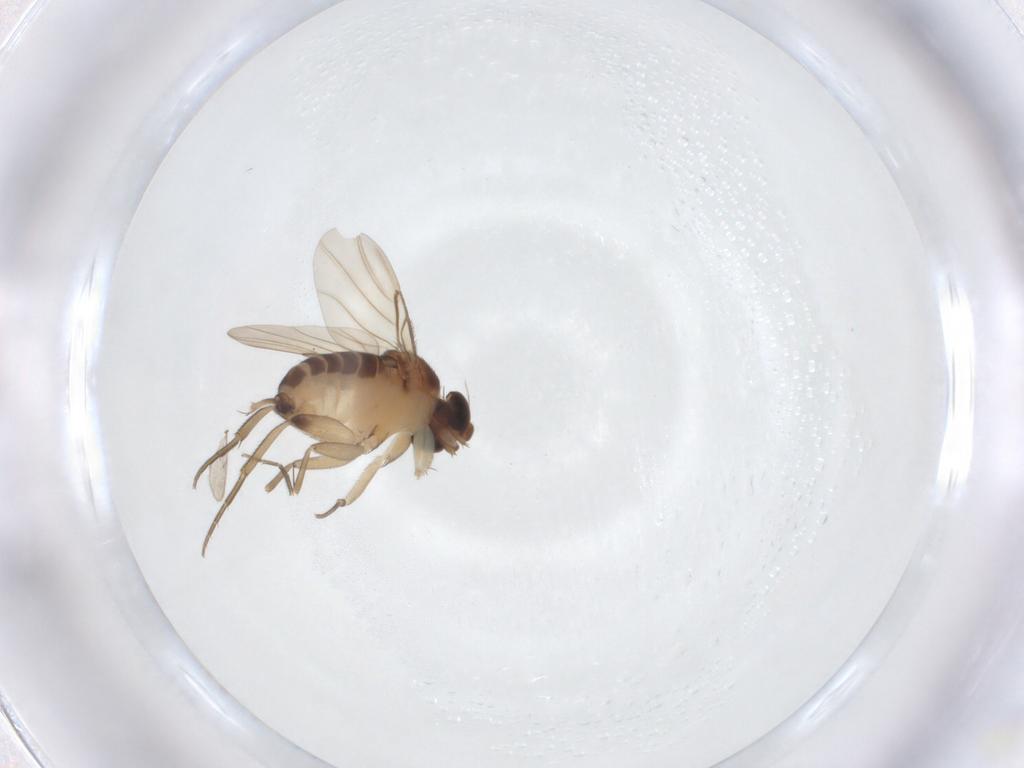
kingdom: Animalia
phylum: Arthropoda
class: Insecta
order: Diptera
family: Phoridae
